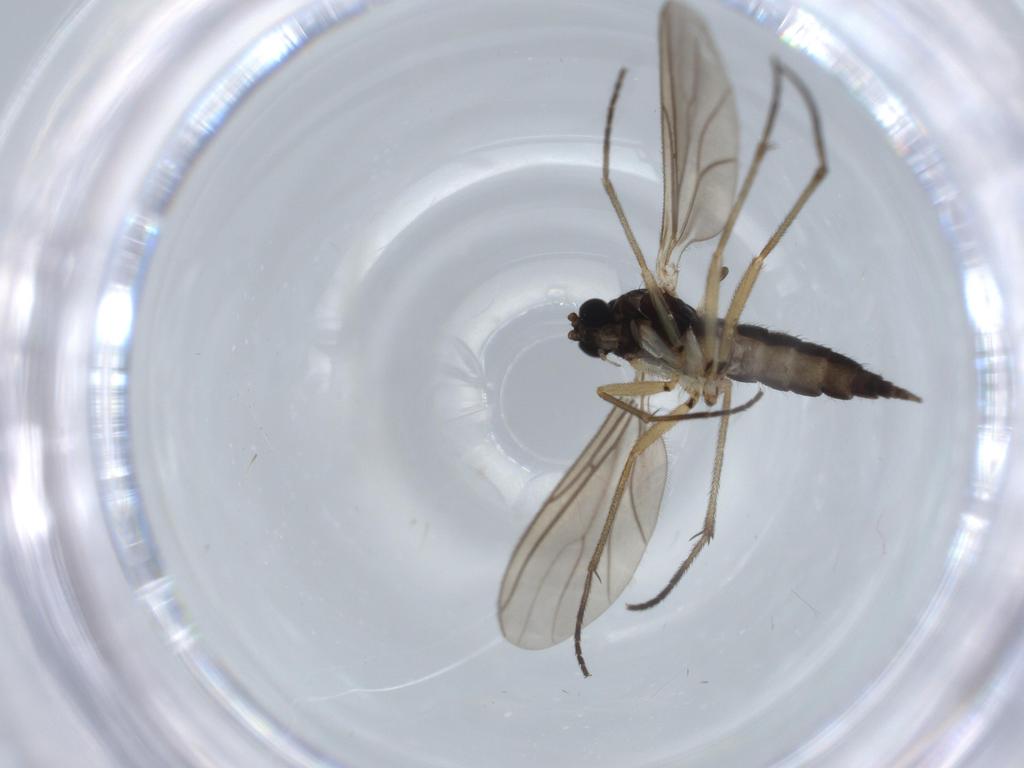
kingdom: Animalia
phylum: Arthropoda
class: Insecta
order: Diptera
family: Sciaridae
